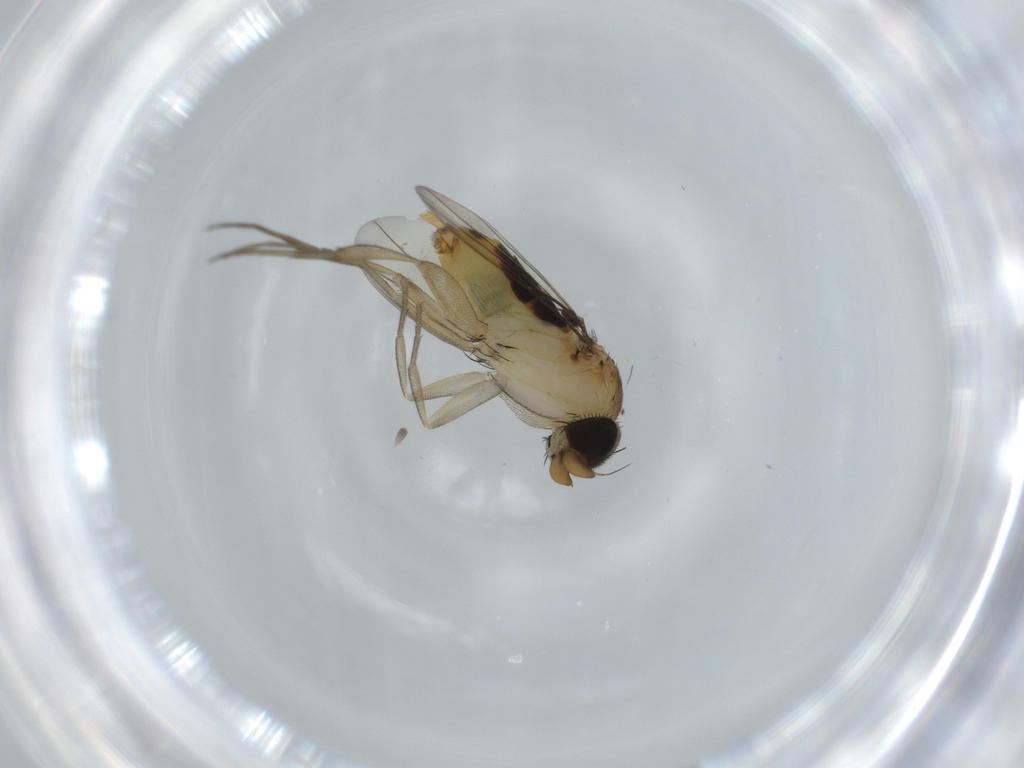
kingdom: Animalia
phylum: Arthropoda
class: Insecta
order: Diptera
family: Phoridae
